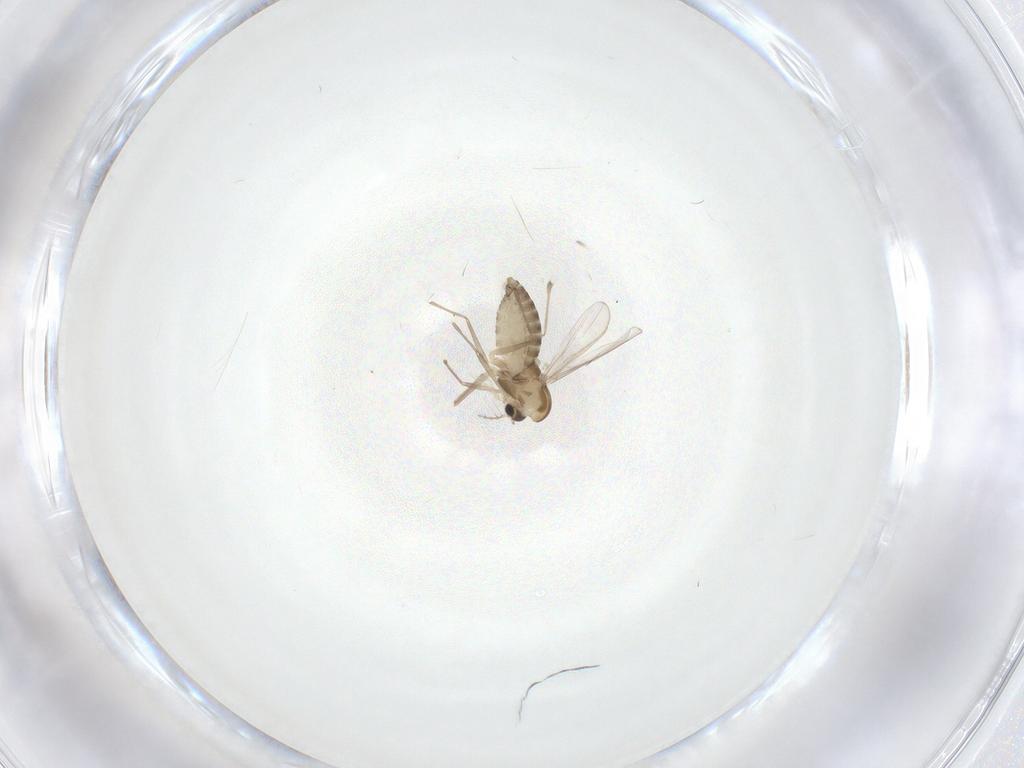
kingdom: Animalia
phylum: Arthropoda
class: Insecta
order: Diptera
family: Chironomidae
